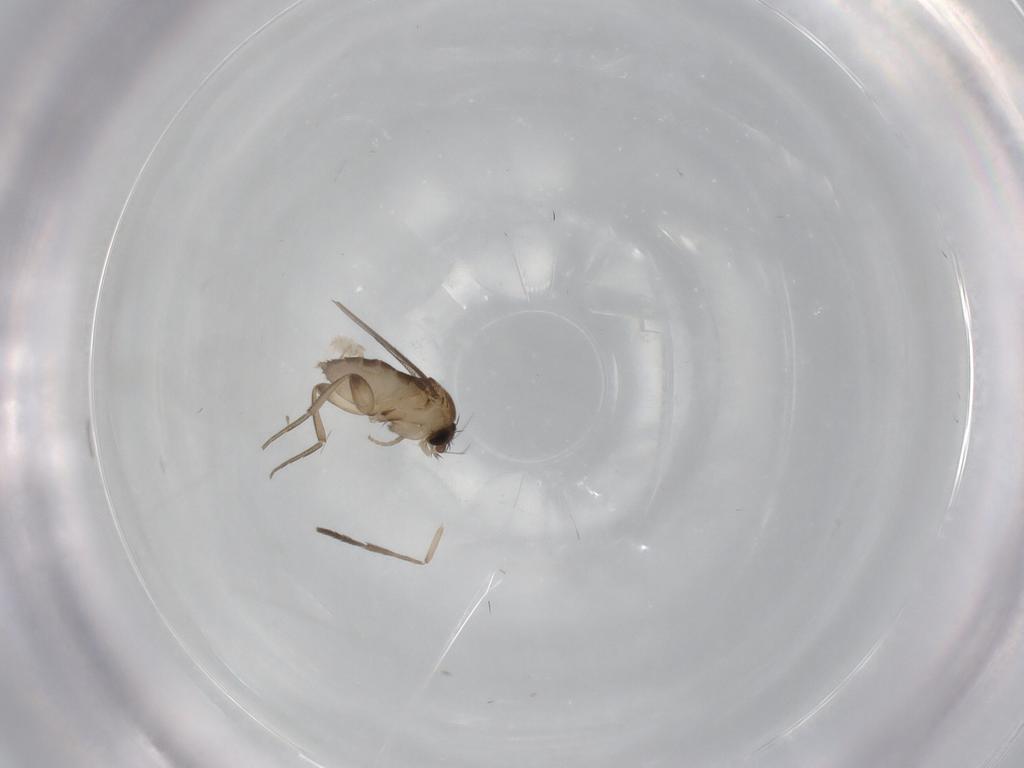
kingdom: Animalia
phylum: Arthropoda
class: Insecta
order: Diptera
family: Phoridae
